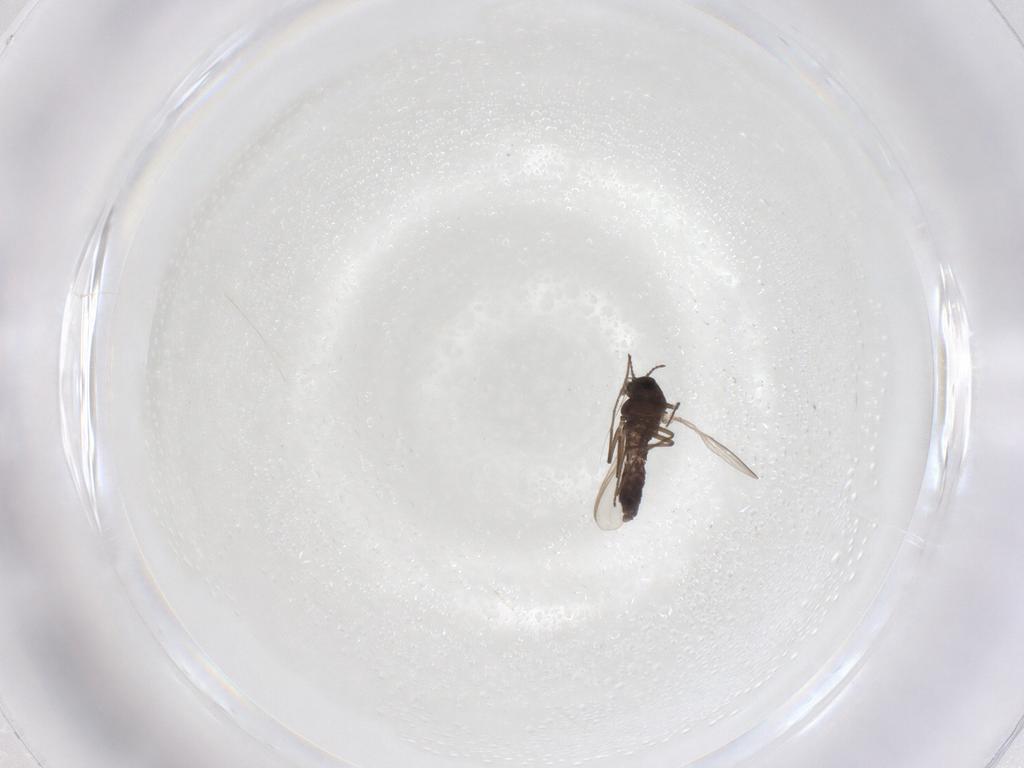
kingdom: Animalia
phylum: Arthropoda
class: Insecta
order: Diptera
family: Chironomidae
